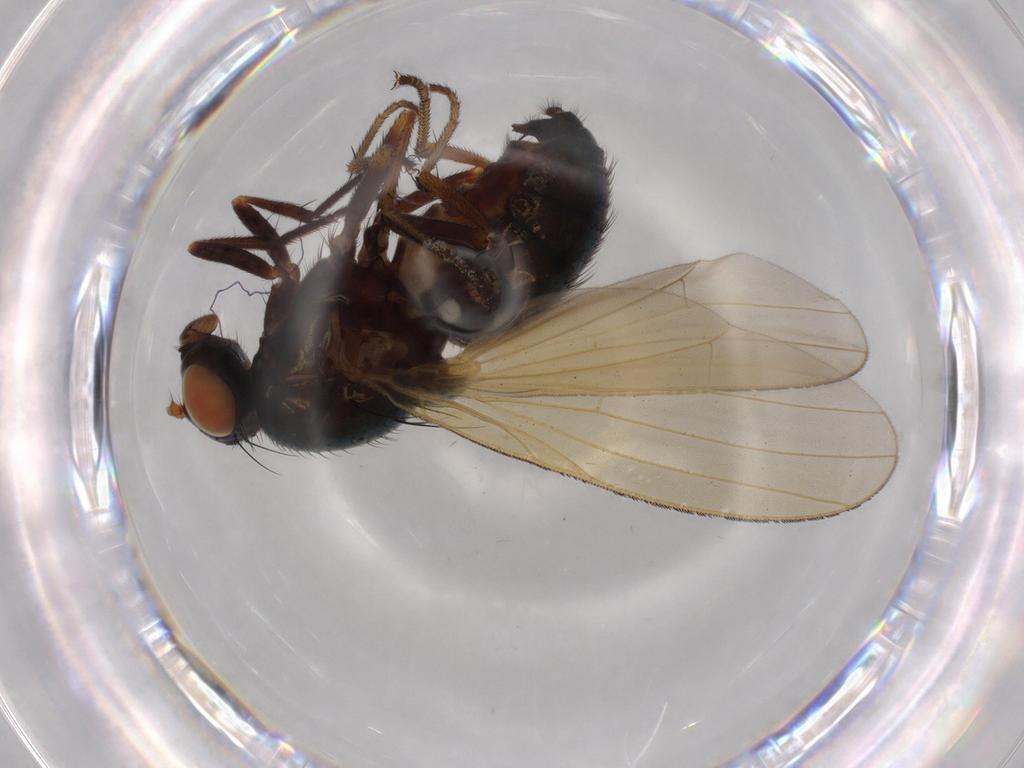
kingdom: Animalia
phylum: Arthropoda
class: Insecta
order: Diptera
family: Lauxaniidae
